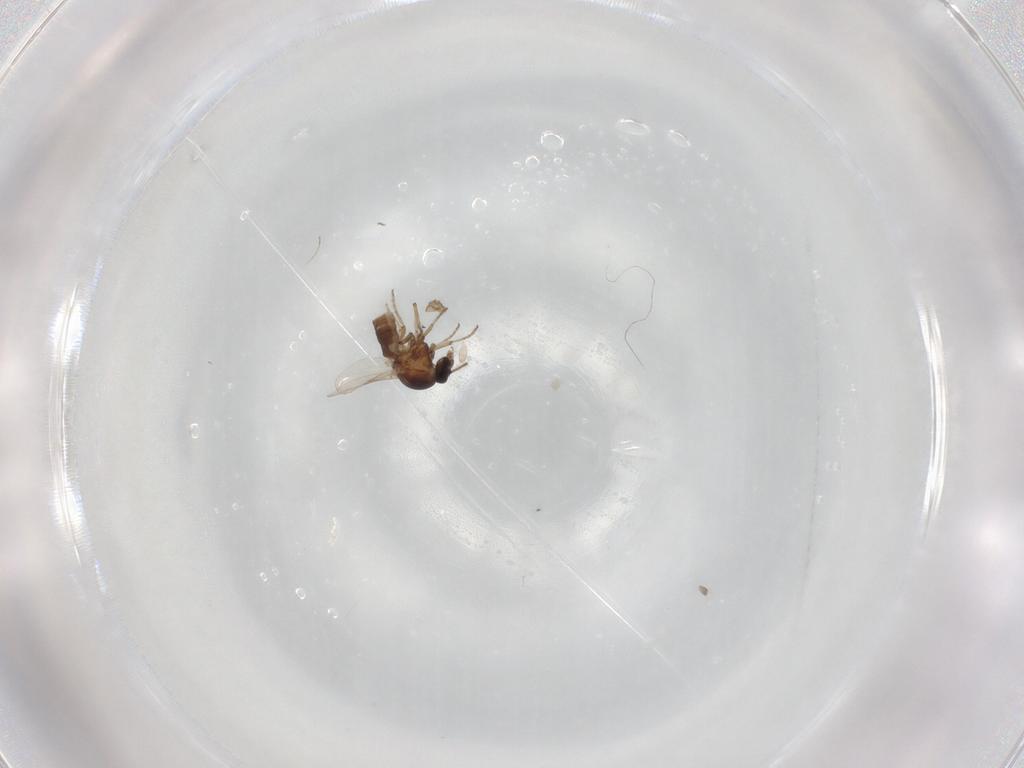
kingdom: Animalia
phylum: Arthropoda
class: Insecta
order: Diptera
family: Ceratopogonidae
